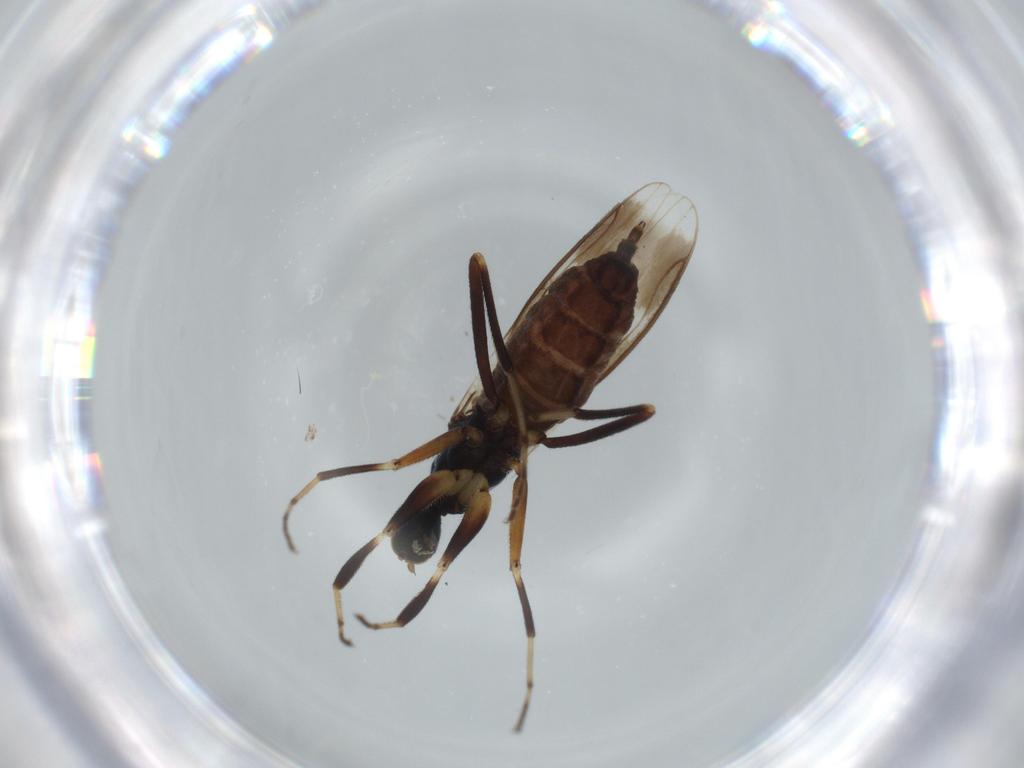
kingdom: Animalia
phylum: Arthropoda
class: Insecta
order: Diptera
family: Hybotidae
